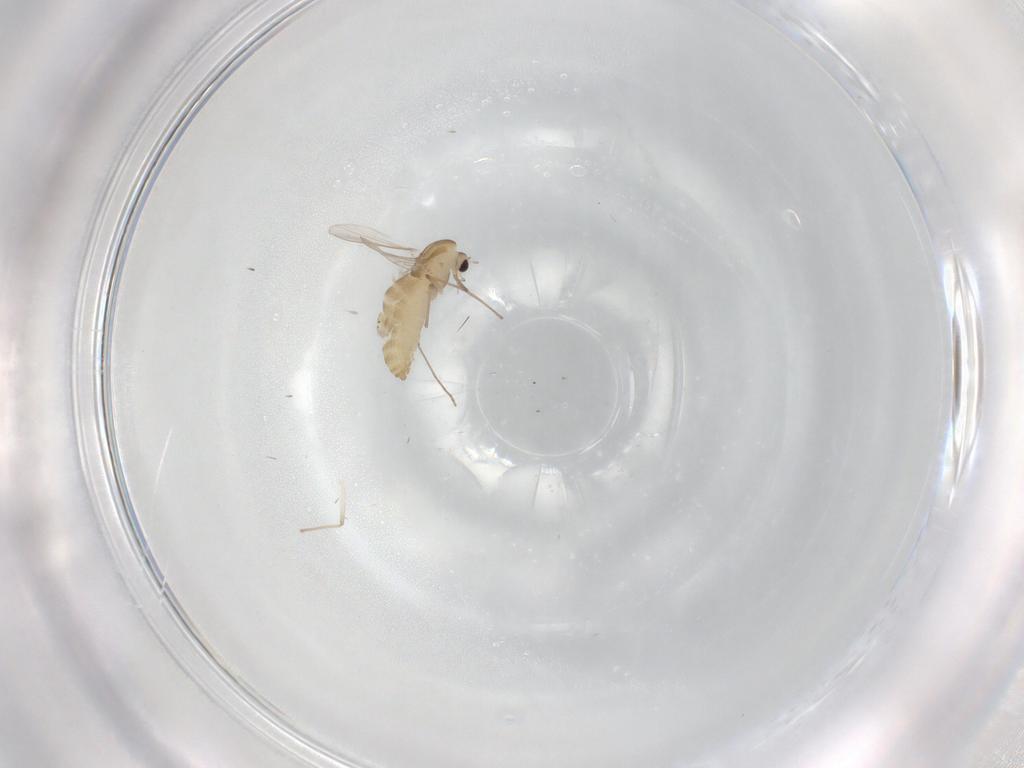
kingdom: Animalia
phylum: Arthropoda
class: Insecta
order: Diptera
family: Chironomidae
